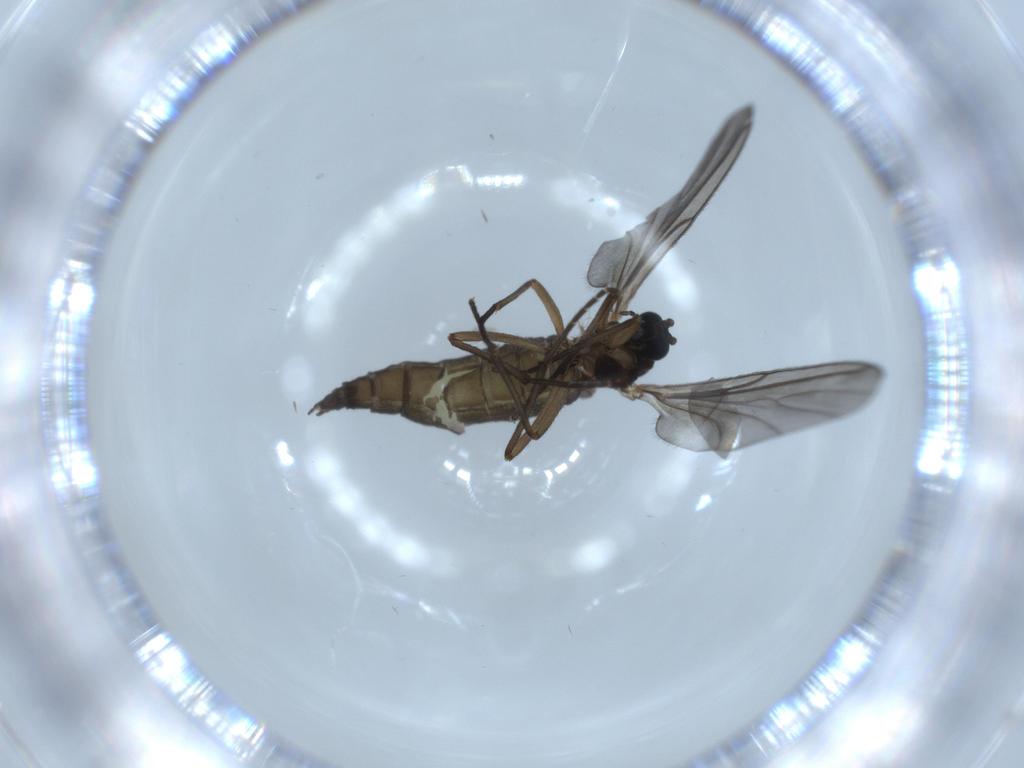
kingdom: Animalia
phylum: Arthropoda
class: Insecta
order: Diptera
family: Sciaridae
